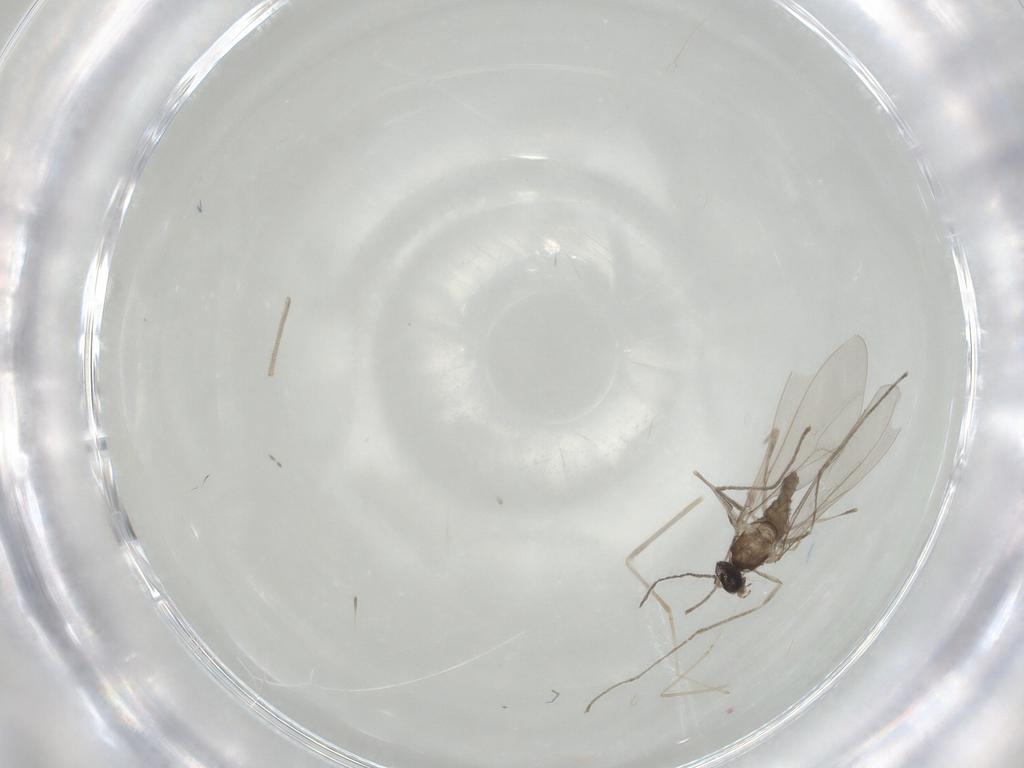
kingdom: Animalia
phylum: Arthropoda
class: Insecta
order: Diptera
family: Cecidomyiidae
